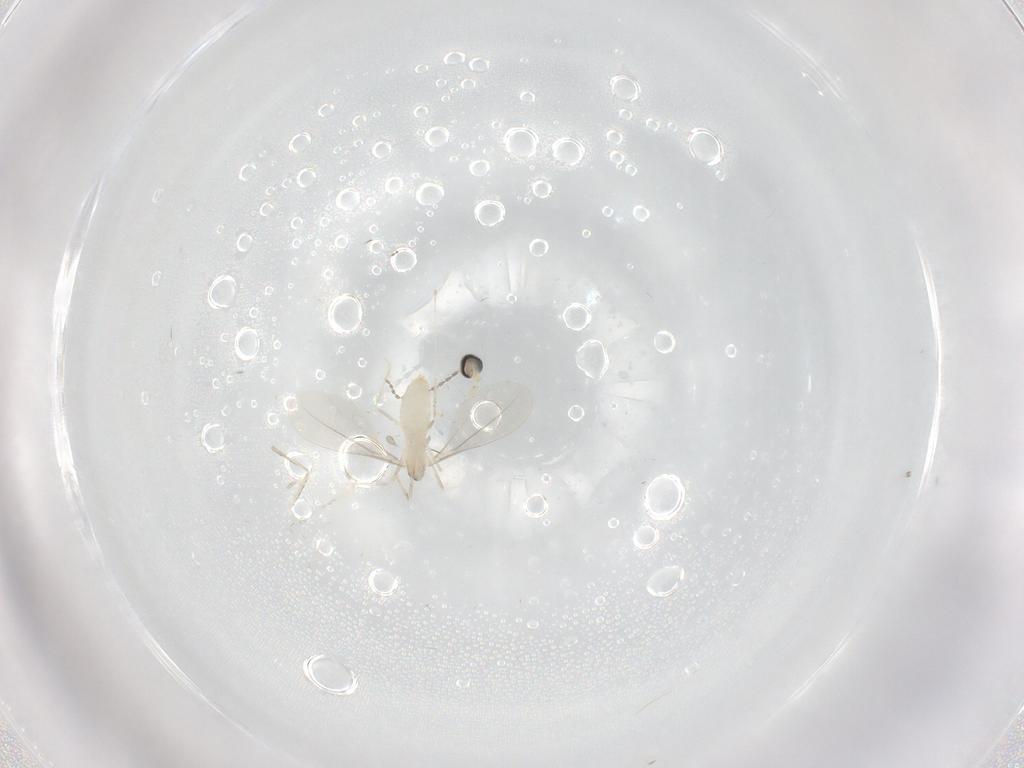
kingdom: Animalia
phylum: Arthropoda
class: Insecta
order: Diptera
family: Cecidomyiidae
